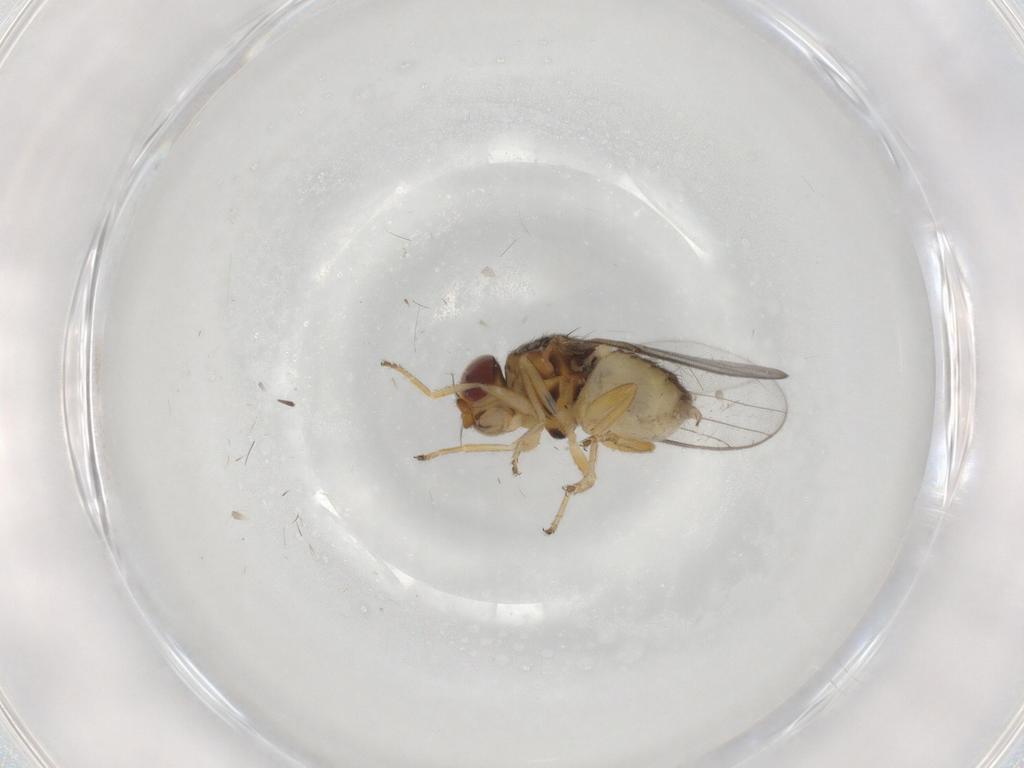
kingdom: Animalia
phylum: Arthropoda
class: Insecta
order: Diptera
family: Chloropidae
